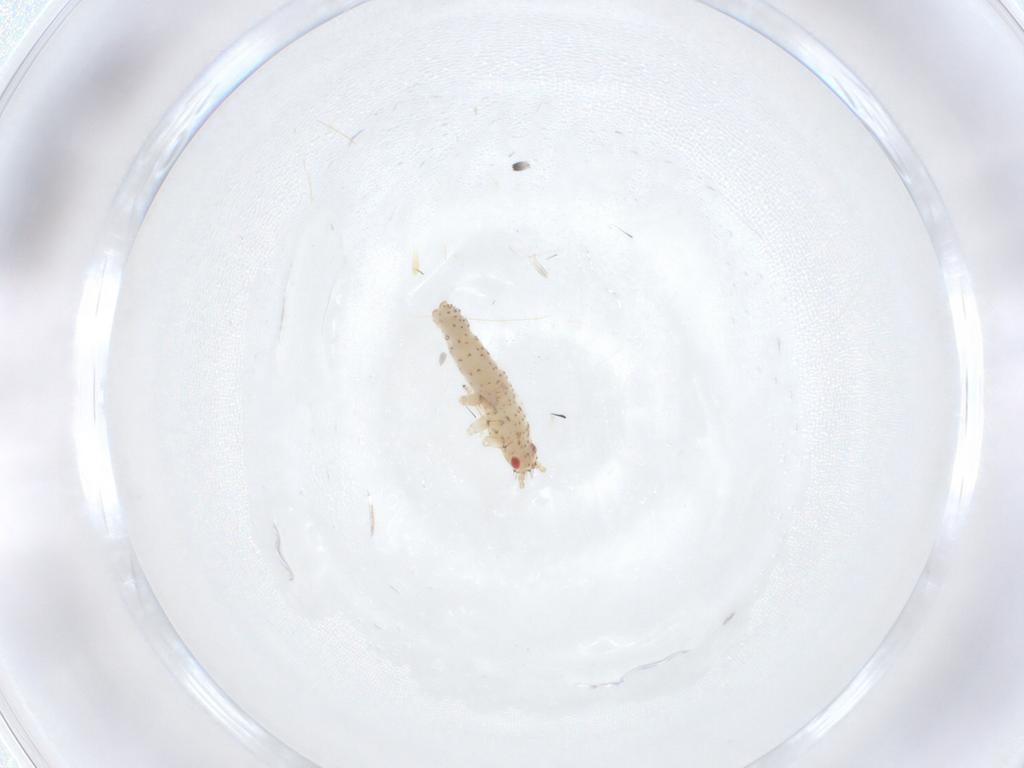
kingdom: Animalia
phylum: Arthropoda
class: Insecta
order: Hemiptera
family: Aphididae
